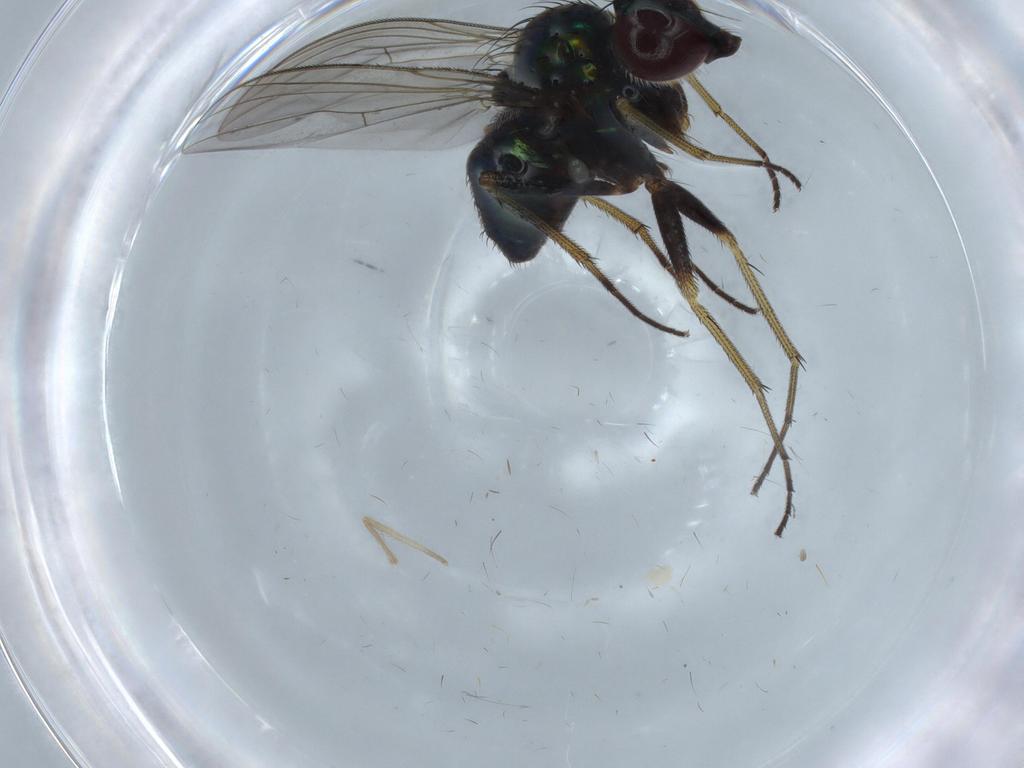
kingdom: Animalia
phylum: Arthropoda
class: Insecta
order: Diptera
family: Dolichopodidae
